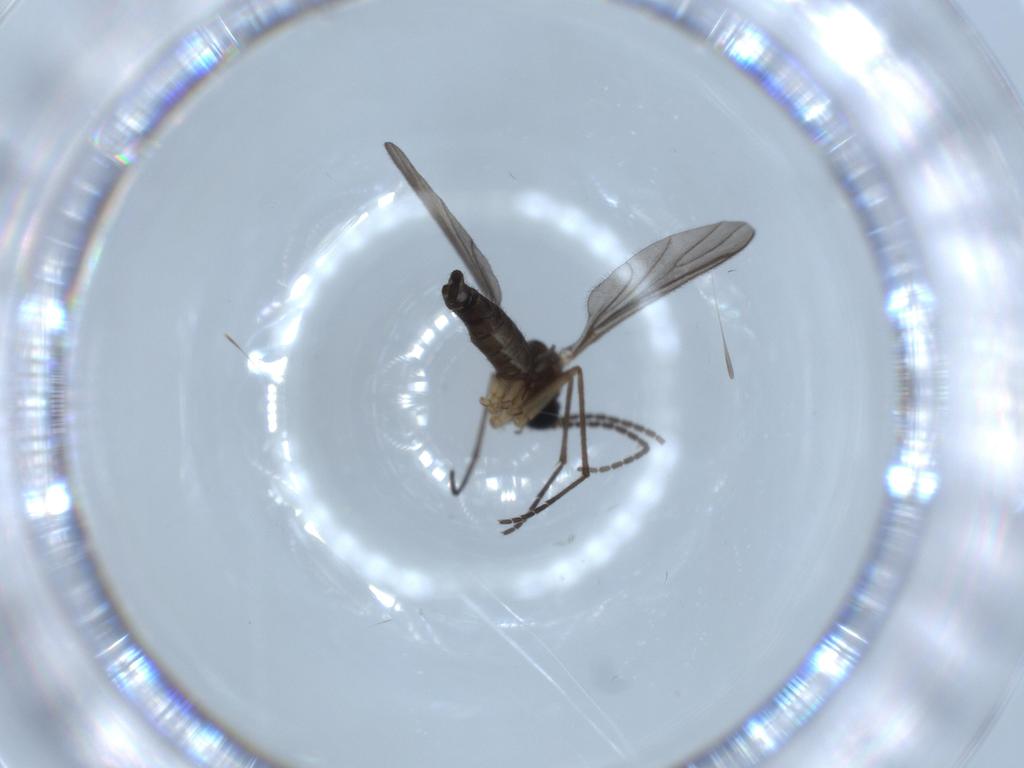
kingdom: Animalia
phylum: Arthropoda
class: Insecta
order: Diptera
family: Psychodidae
